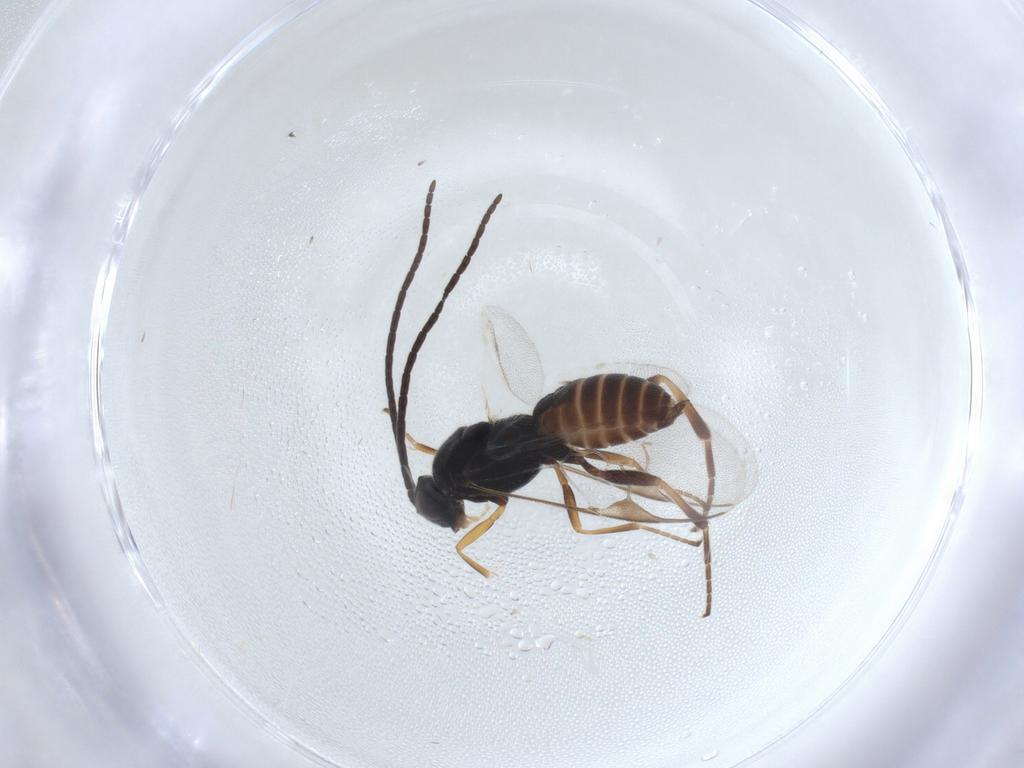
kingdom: Animalia
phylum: Arthropoda
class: Insecta
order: Hymenoptera
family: Braconidae
